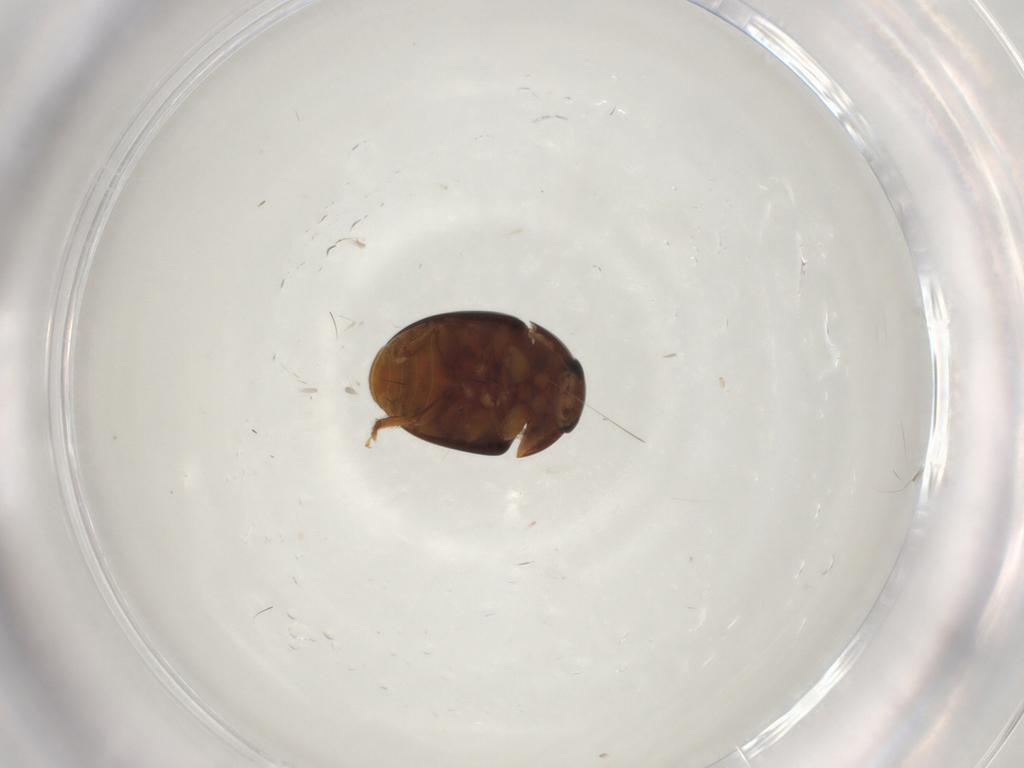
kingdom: Animalia
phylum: Arthropoda
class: Insecta
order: Coleoptera
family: Phalacridae
